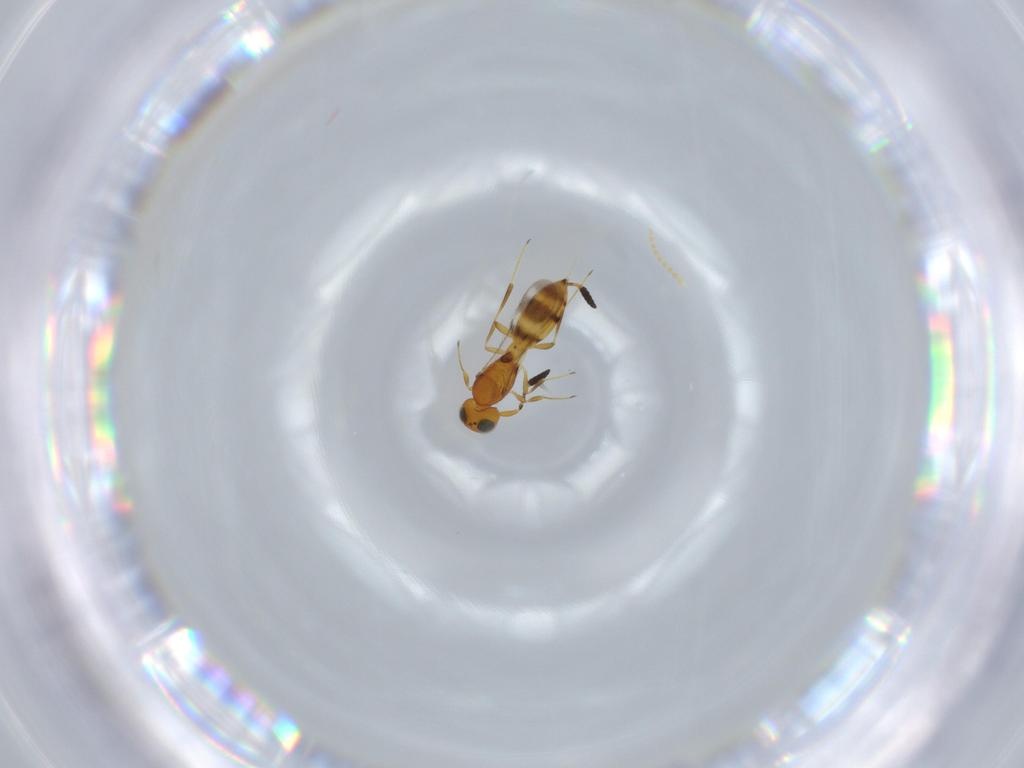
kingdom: Animalia
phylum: Arthropoda
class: Insecta
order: Hymenoptera
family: Scelionidae
